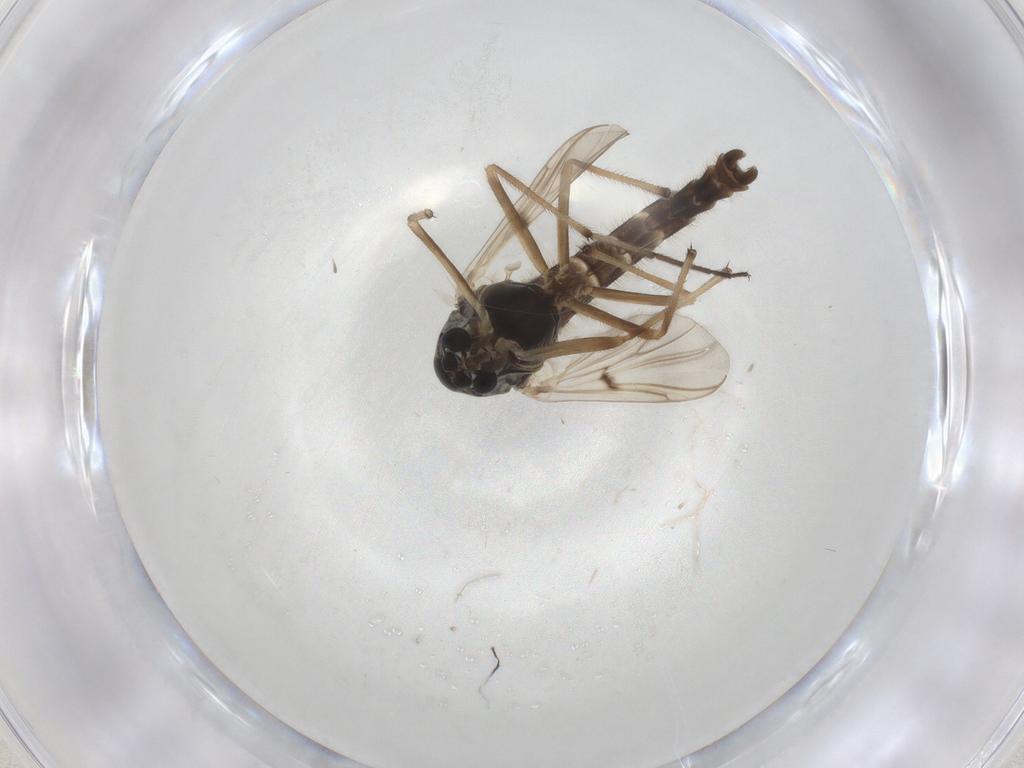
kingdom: Animalia
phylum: Arthropoda
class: Insecta
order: Diptera
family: Chironomidae
